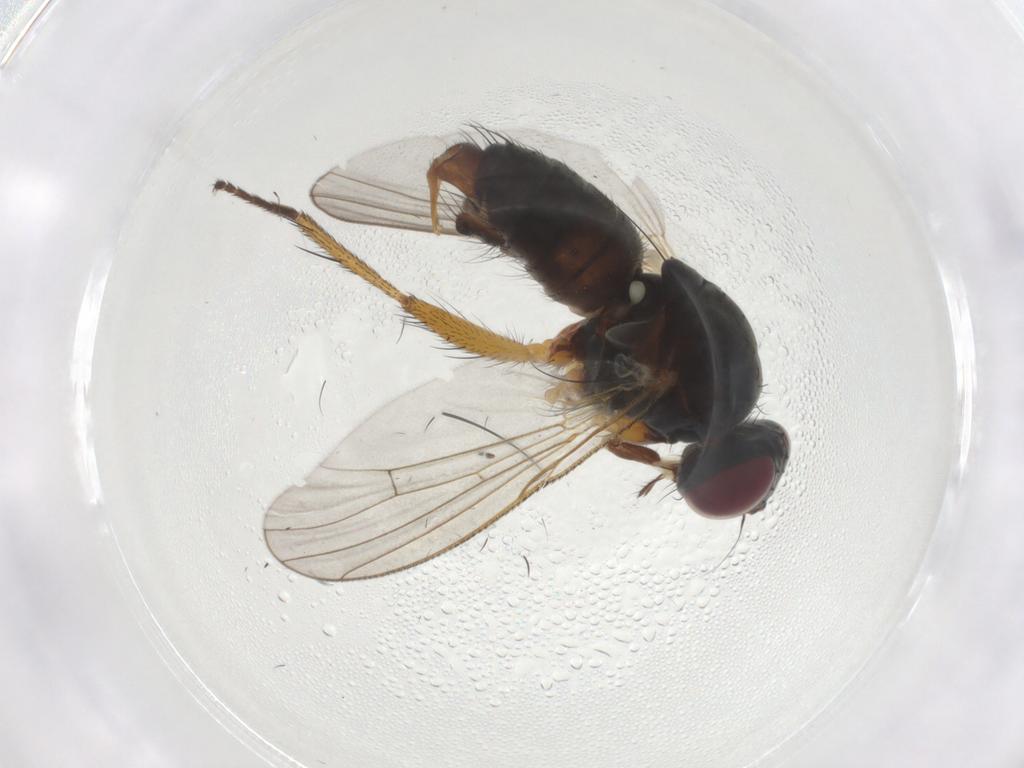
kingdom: Animalia
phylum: Arthropoda
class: Insecta
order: Diptera
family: Muscidae
